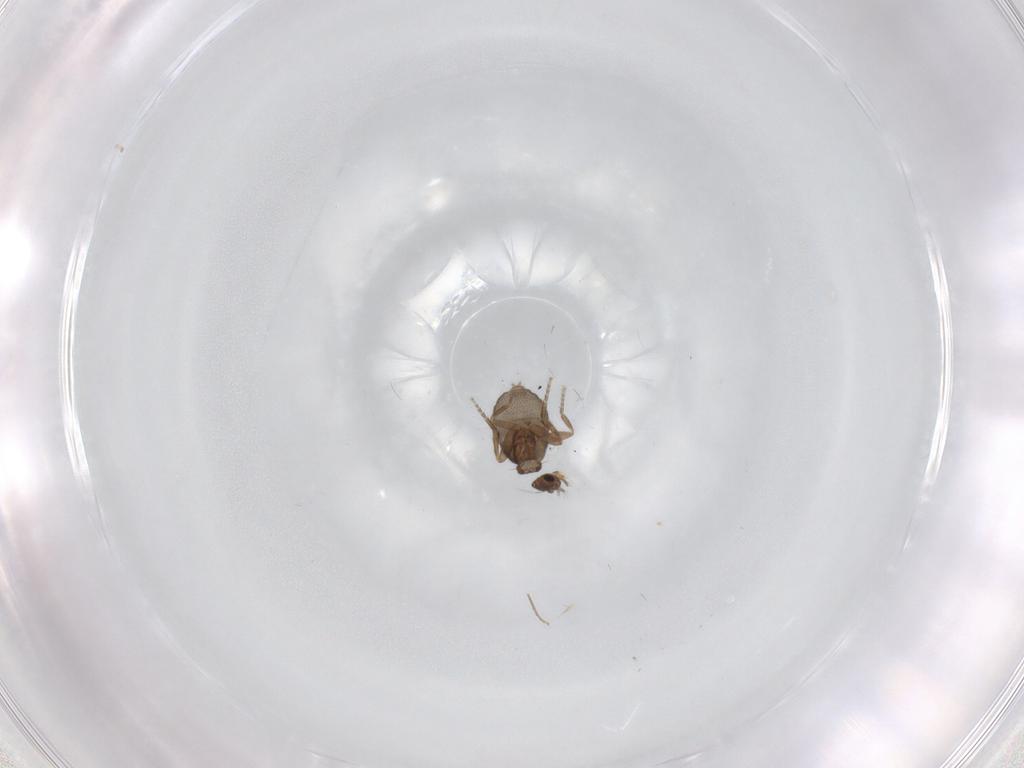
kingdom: Animalia
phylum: Arthropoda
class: Insecta
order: Diptera
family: Phoridae
